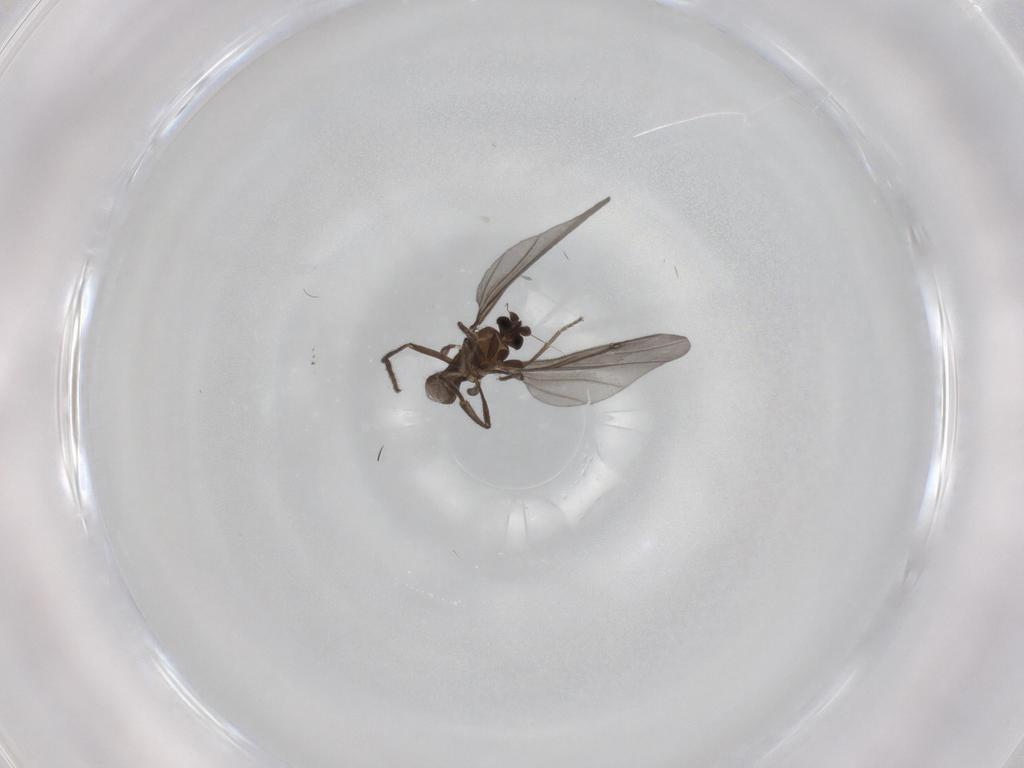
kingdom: Animalia
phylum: Arthropoda
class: Insecta
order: Diptera
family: Phoridae
